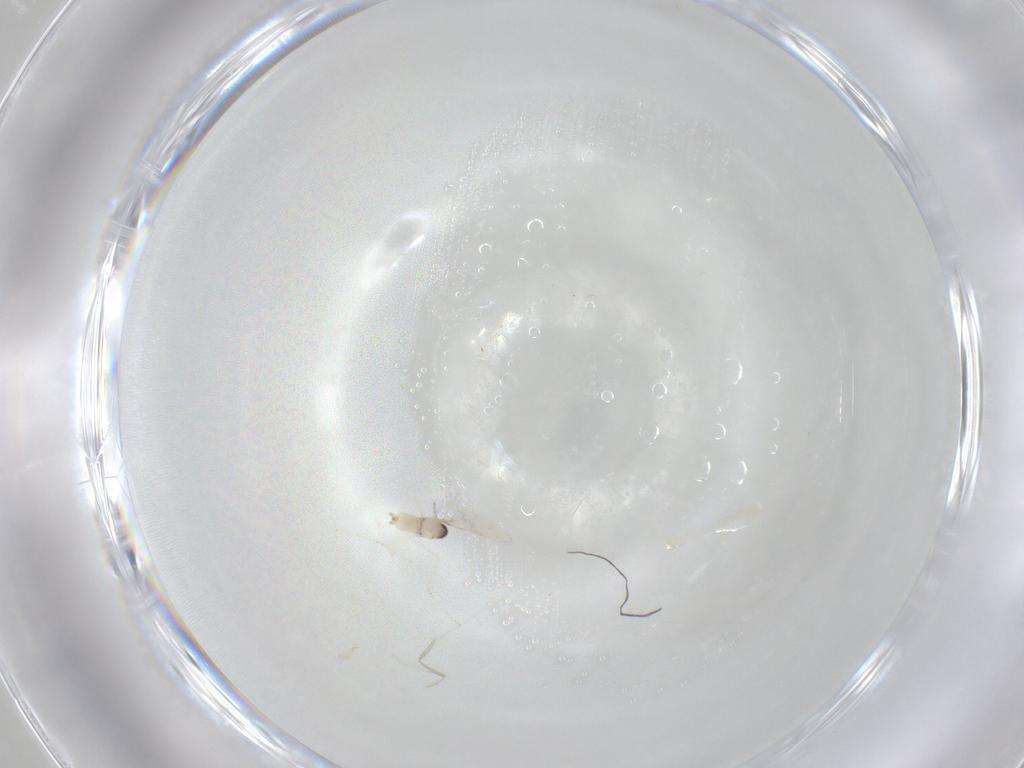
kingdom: Animalia
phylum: Arthropoda
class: Insecta
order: Diptera
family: Cecidomyiidae
